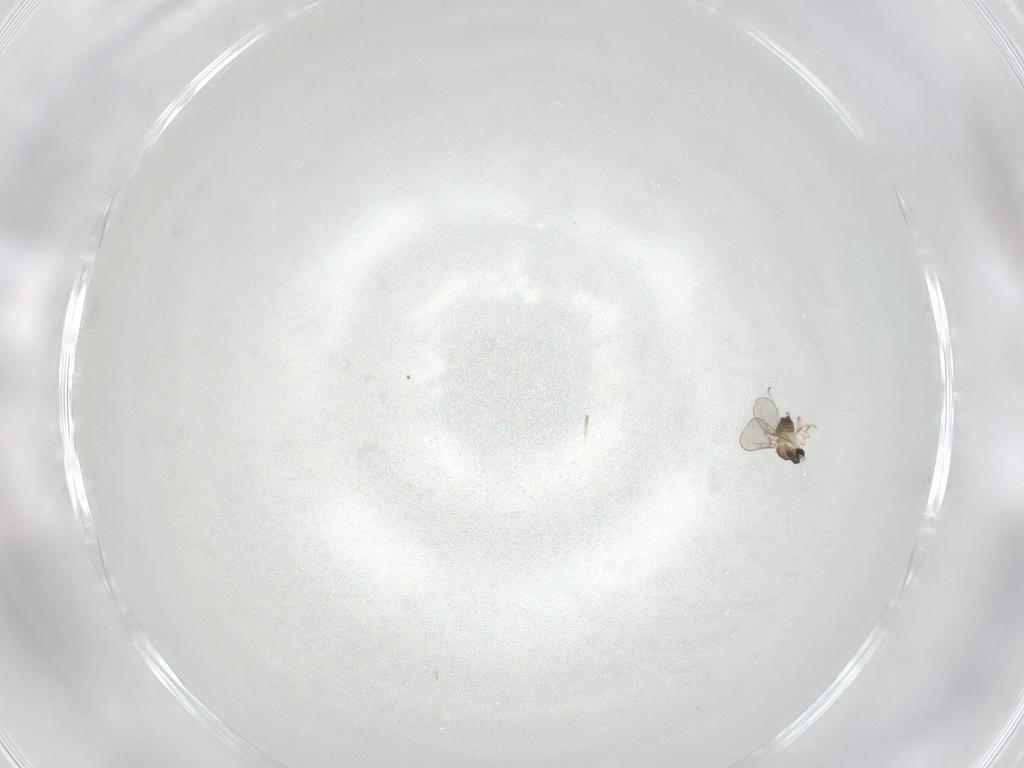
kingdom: Animalia
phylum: Arthropoda
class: Insecta
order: Diptera
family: Cecidomyiidae
